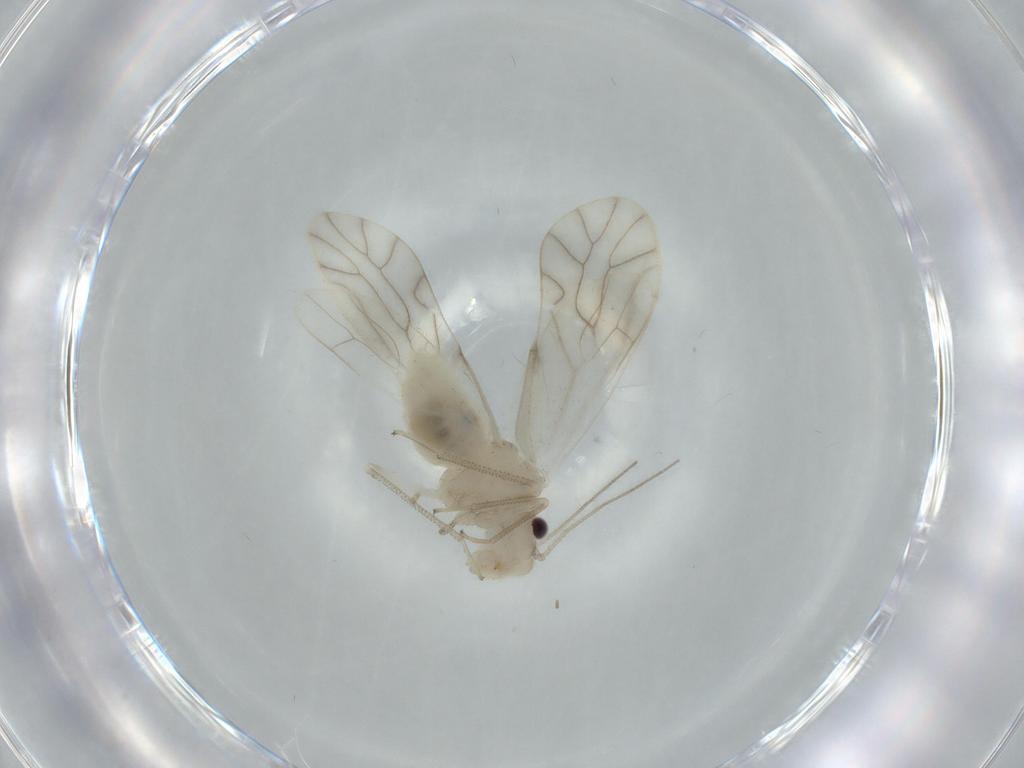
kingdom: Animalia
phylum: Arthropoda
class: Insecta
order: Psocodea
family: Caeciliusidae
